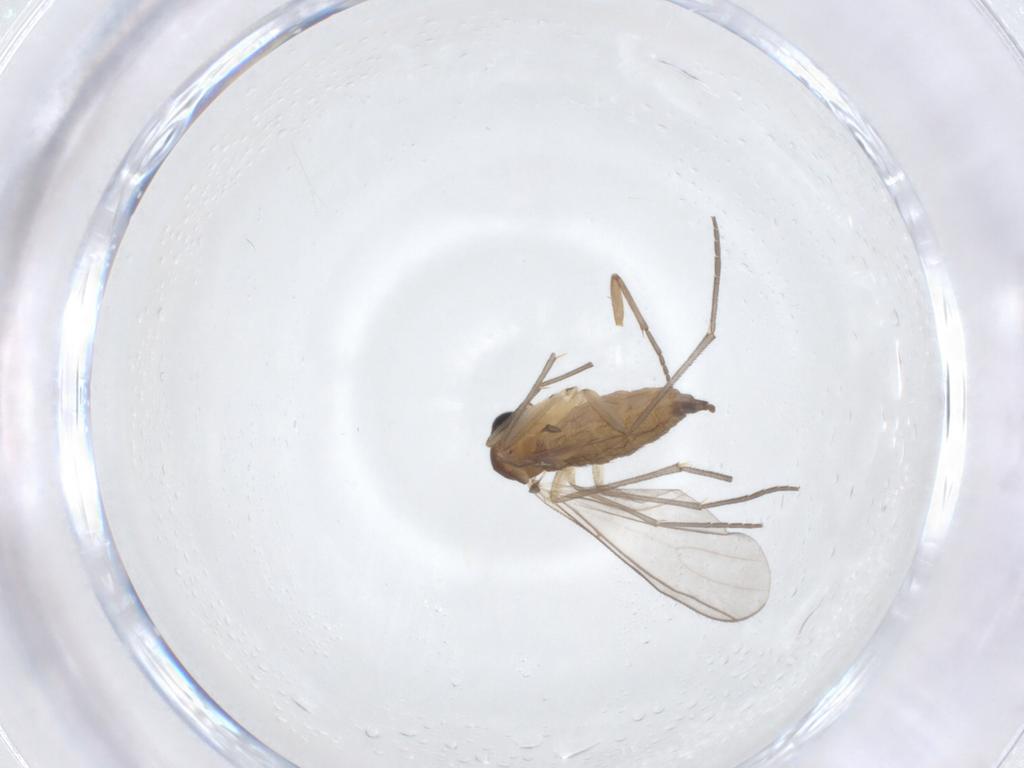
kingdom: Animalia
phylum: Arthropoda
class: Insecta
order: Diptera
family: Sciaridae
